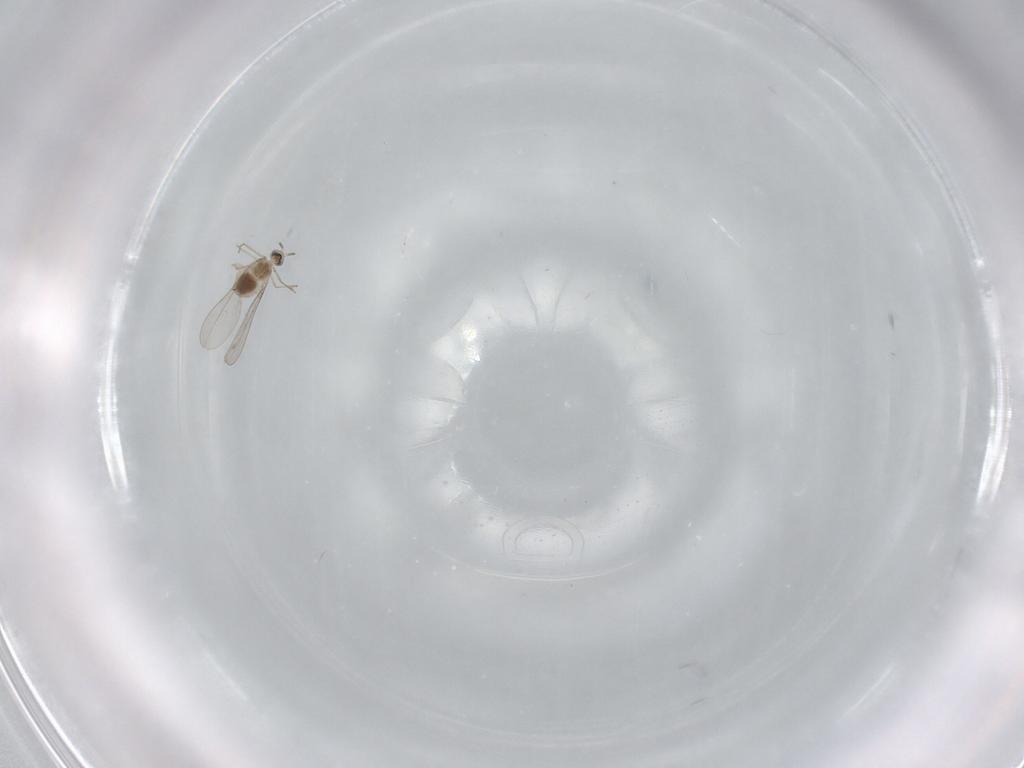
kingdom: Animalia
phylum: Arthropoda
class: Insecta
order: Diptera
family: Cecidomyiidae
